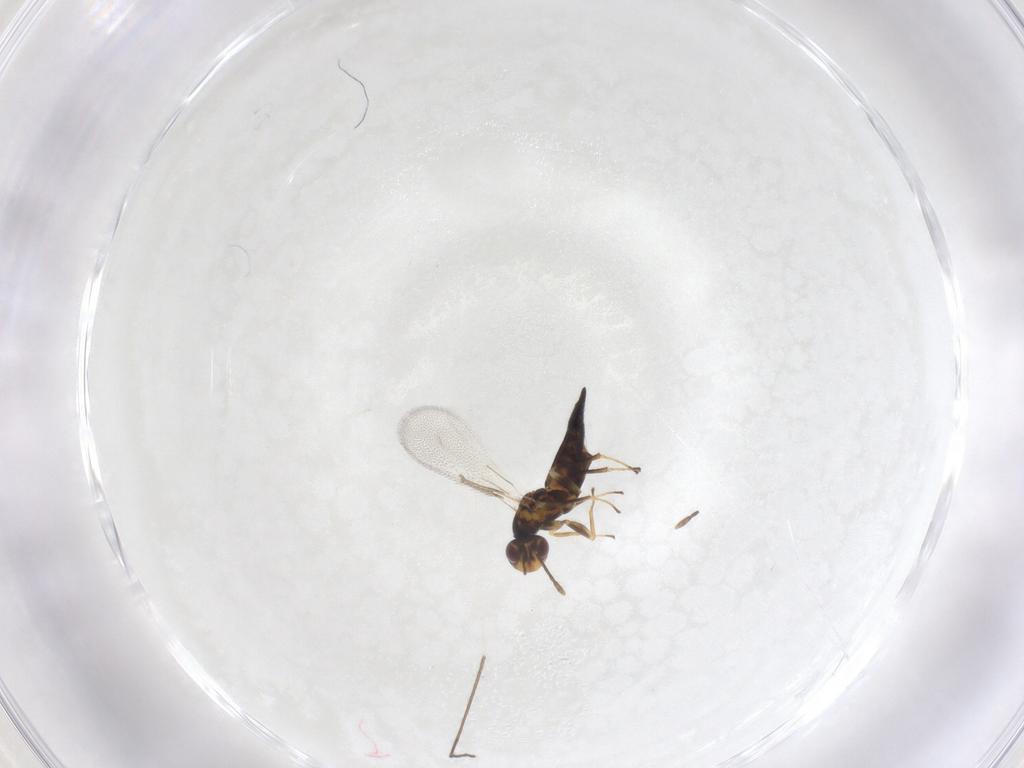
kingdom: Animalia
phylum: Arthropoda
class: Insecta
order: Hymenoptera
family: Eulophidae
